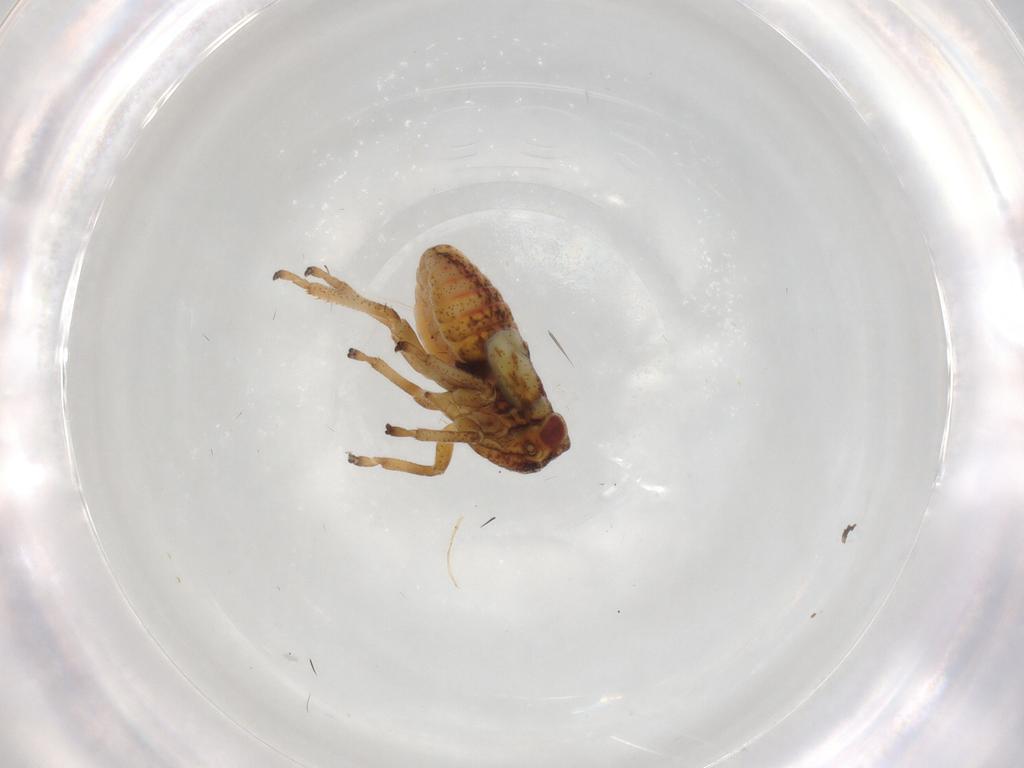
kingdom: Animalia
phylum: Arthropoda
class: Insecta
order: Hemiptera
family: Cicadellidae
